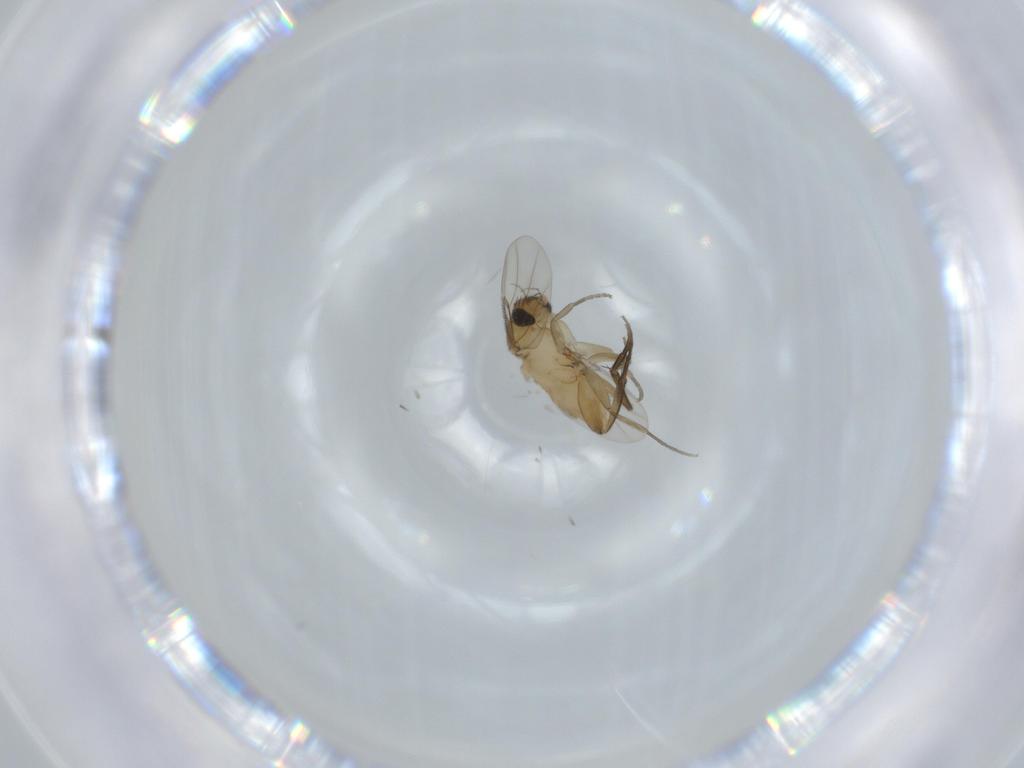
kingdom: Animalia
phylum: Arthropoda
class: Insecta
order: Diptera
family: Phoridae
